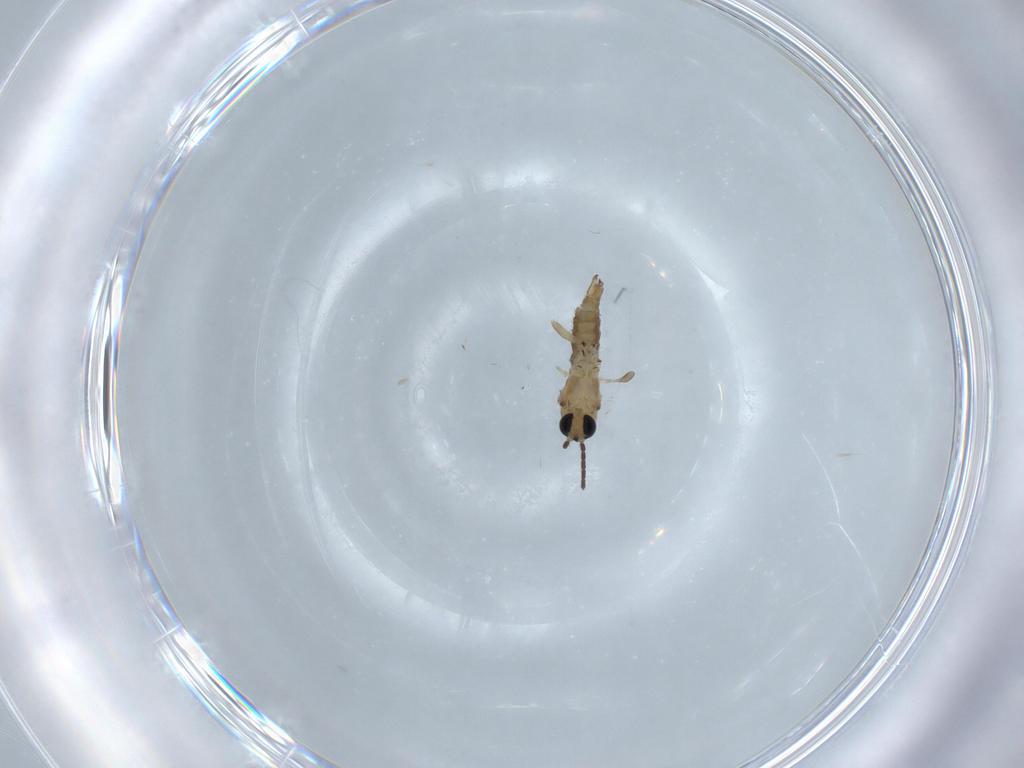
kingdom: Animalia
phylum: Arthropoda
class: Insecta
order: Diptera
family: Sciaridae
